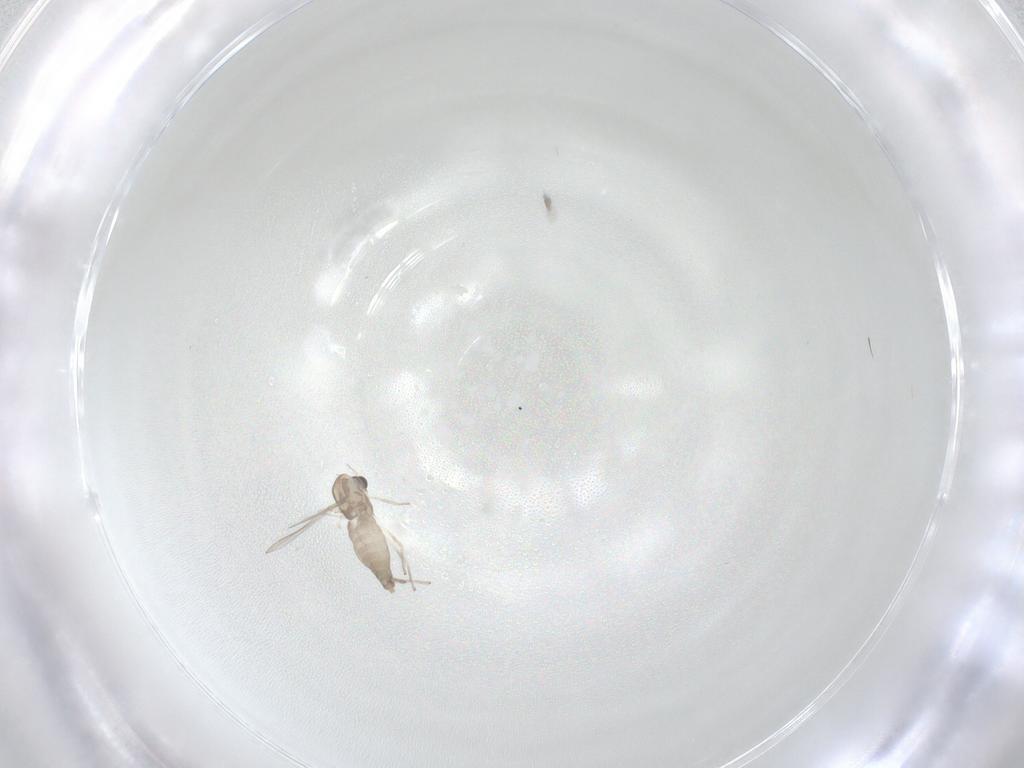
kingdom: Animalia
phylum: Arthropoda
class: Insecta
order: Diptera
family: Chironomidae
